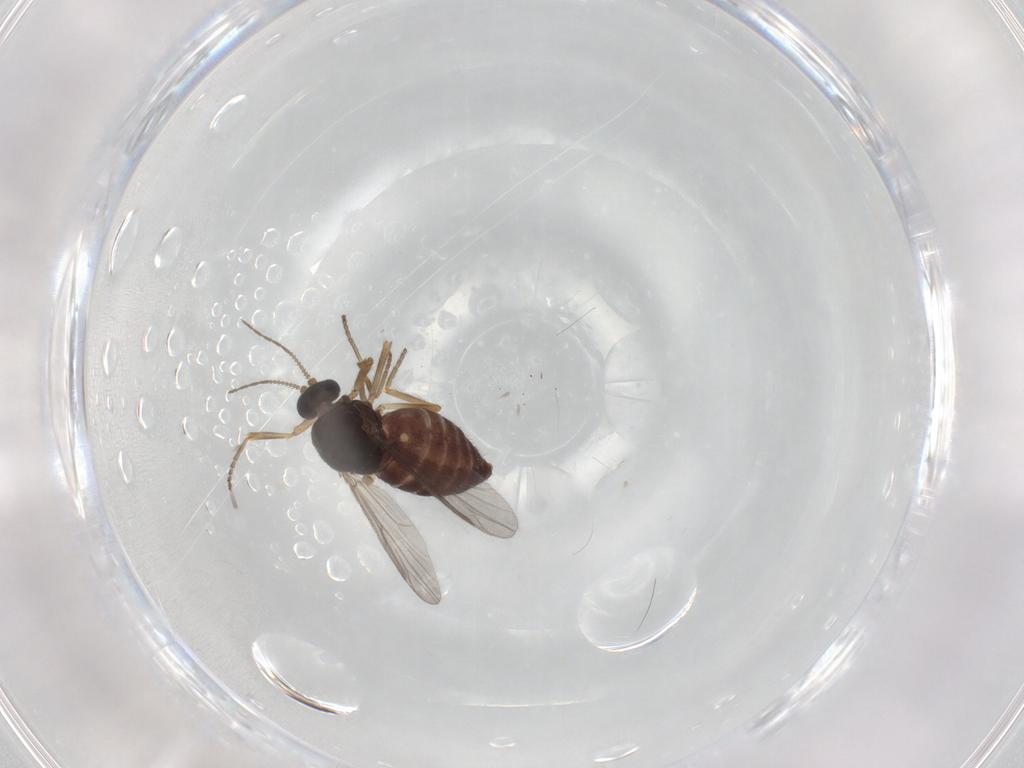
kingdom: Animalia
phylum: Arthropoda
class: Insecta
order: Diptera
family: Ceratopogonidae
